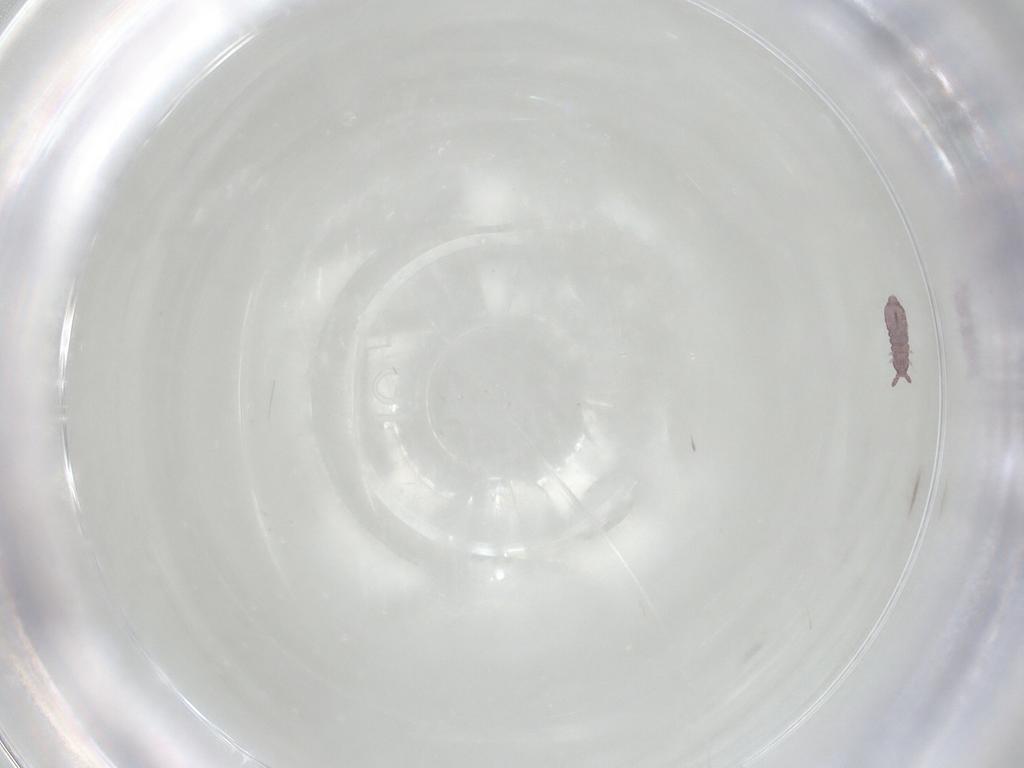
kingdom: Animalia
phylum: Arthropoda
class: Collembola
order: Poduromorpha
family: Hypogastruridae
